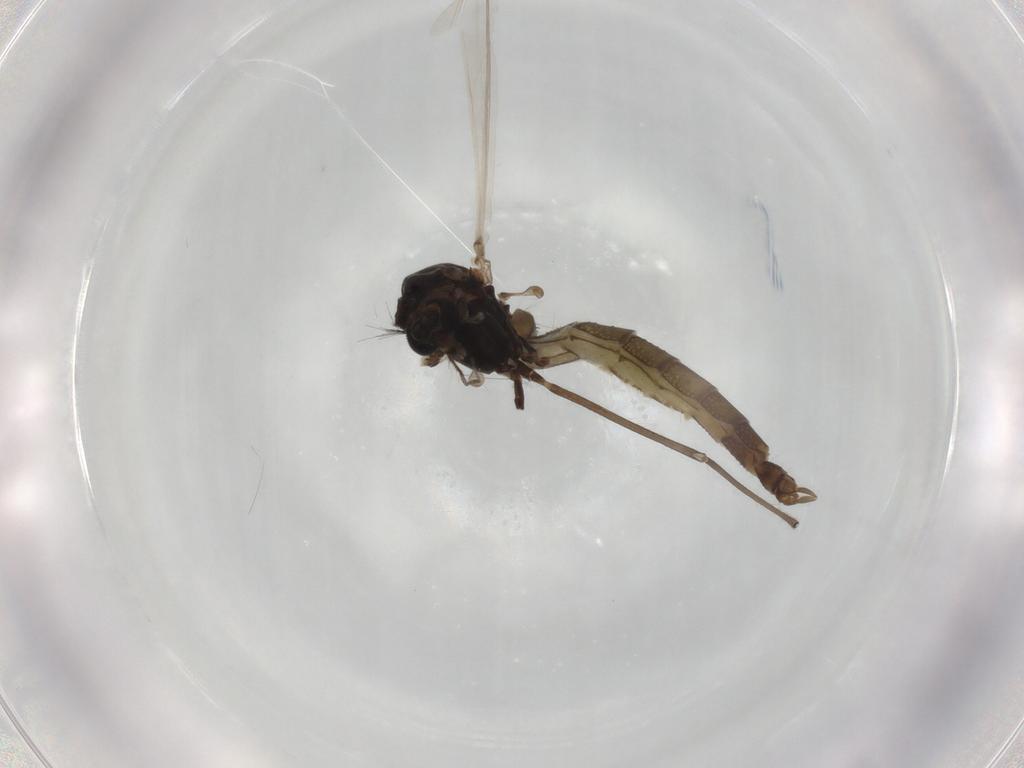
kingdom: Animalia
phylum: Arthropoda
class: Insecta
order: Diptera
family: Chironomidae
